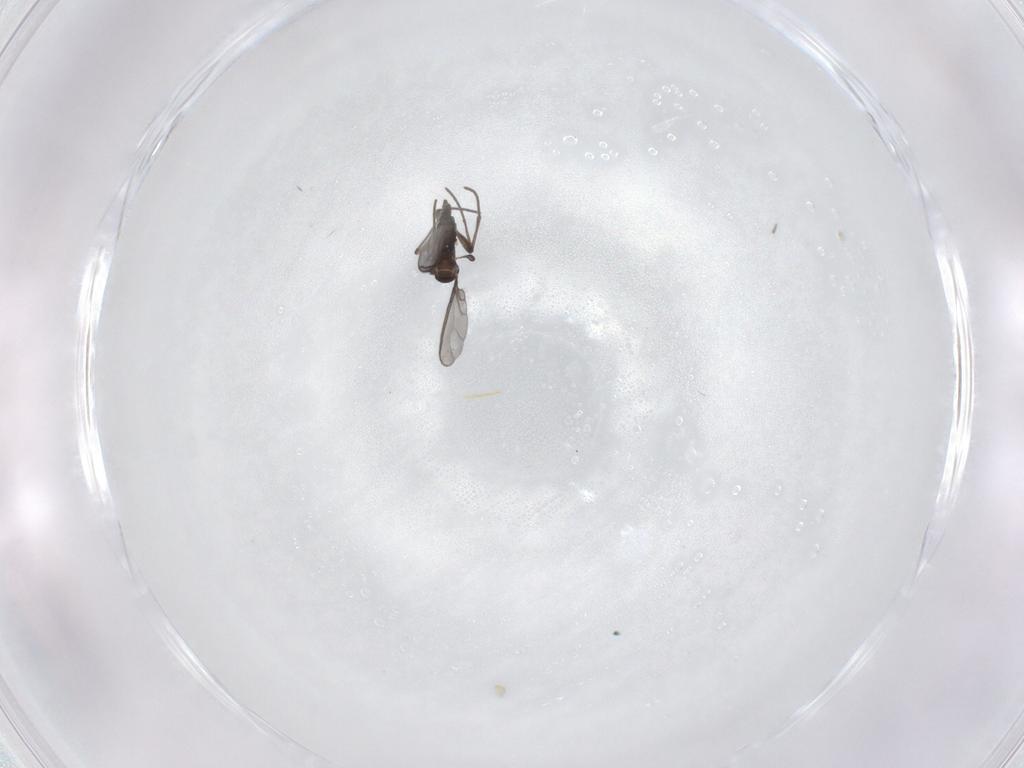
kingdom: Animalia
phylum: Arthropoda
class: Insecta
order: Diptera
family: Sciaridae
